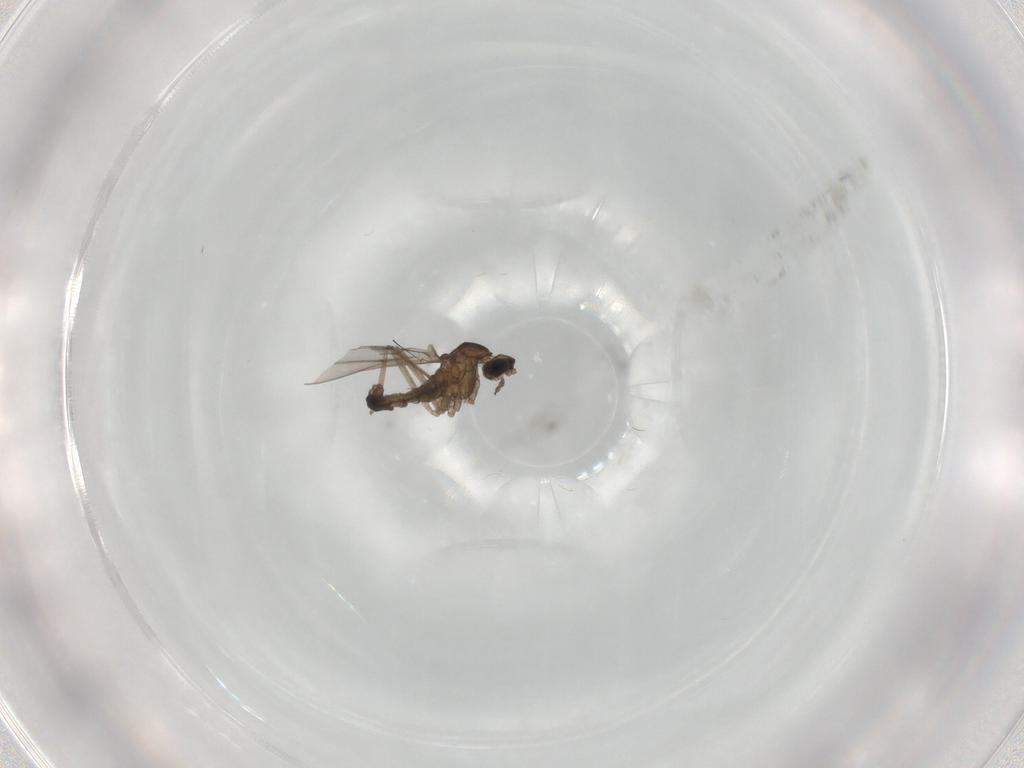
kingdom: Animalia
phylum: Arthropoda
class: Insecta
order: Diptera
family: Cecidomyiidae
